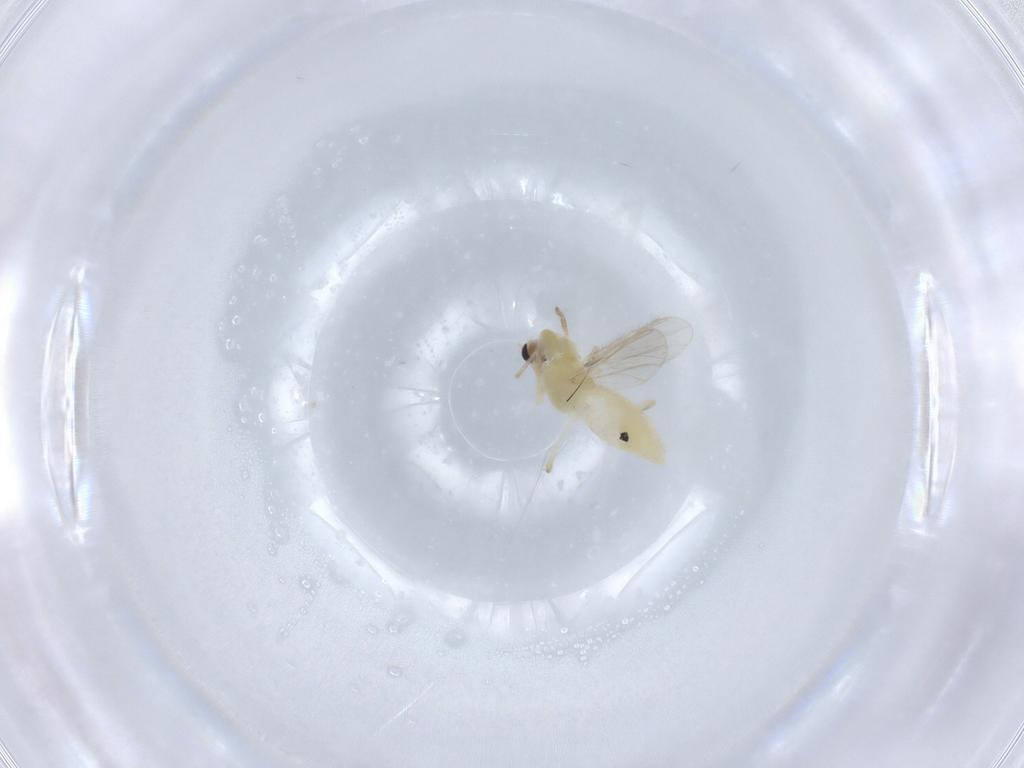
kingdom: Animalia
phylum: Arthropoda
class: Insecta
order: Diptera
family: Chironomidae
